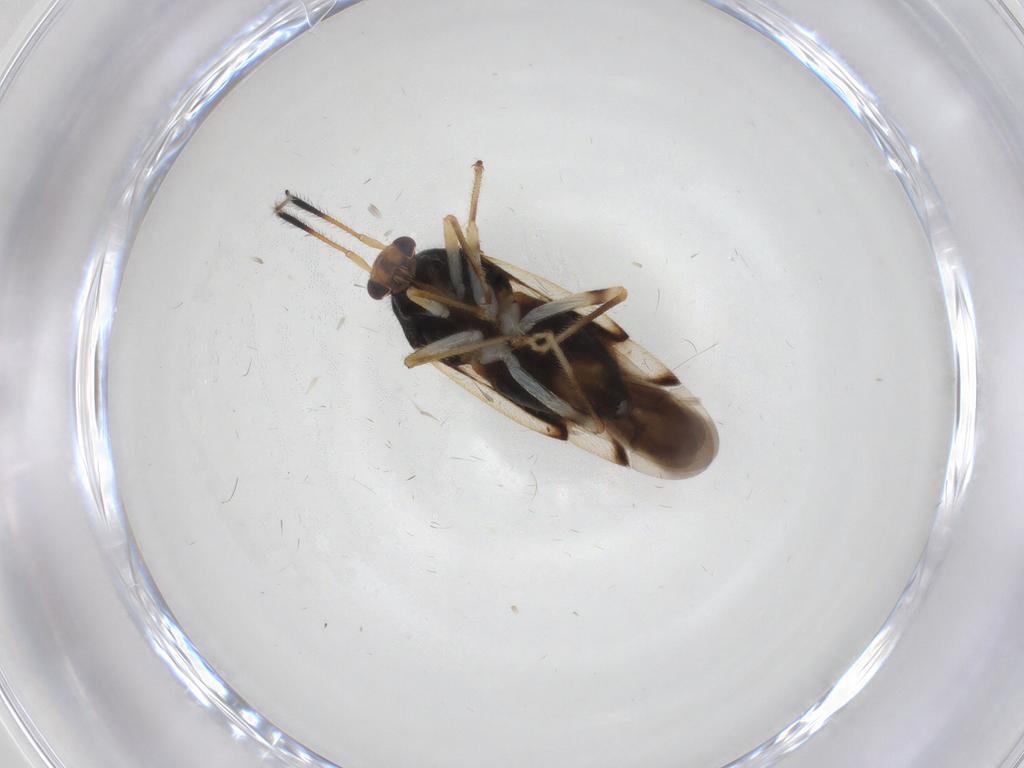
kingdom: Animalia
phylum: Arthropoda
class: Insecta
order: Hemiptera
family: Miridae
